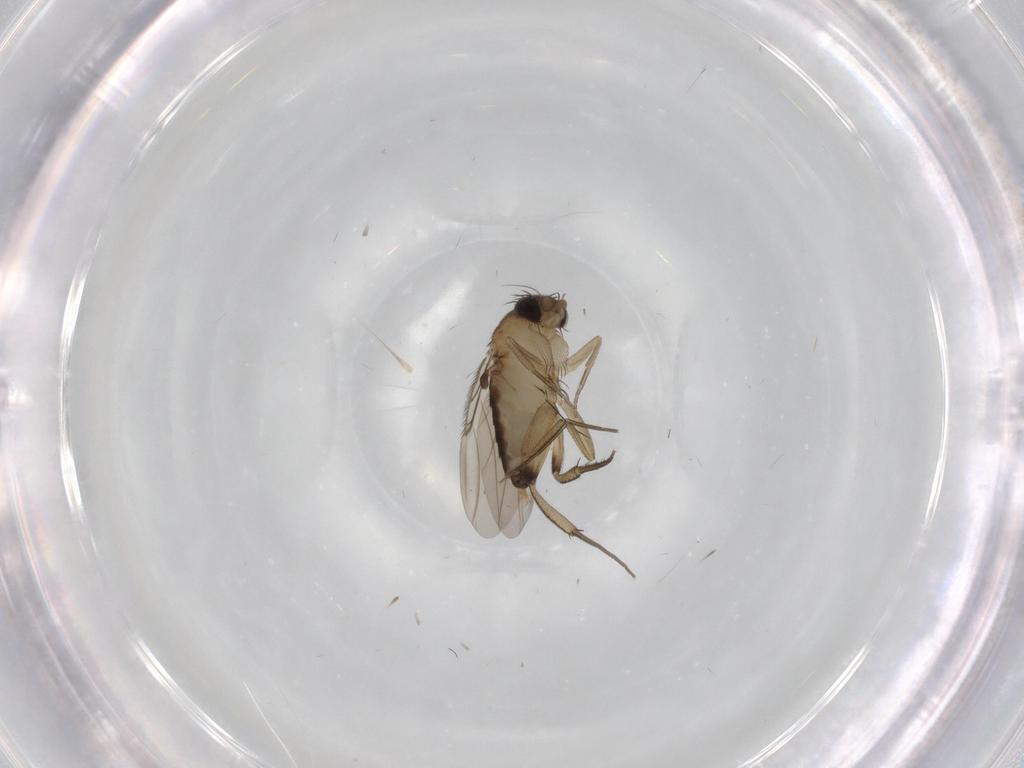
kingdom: Animalia
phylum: Arthropoda
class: Insecta
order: Diptera
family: Phoridae
